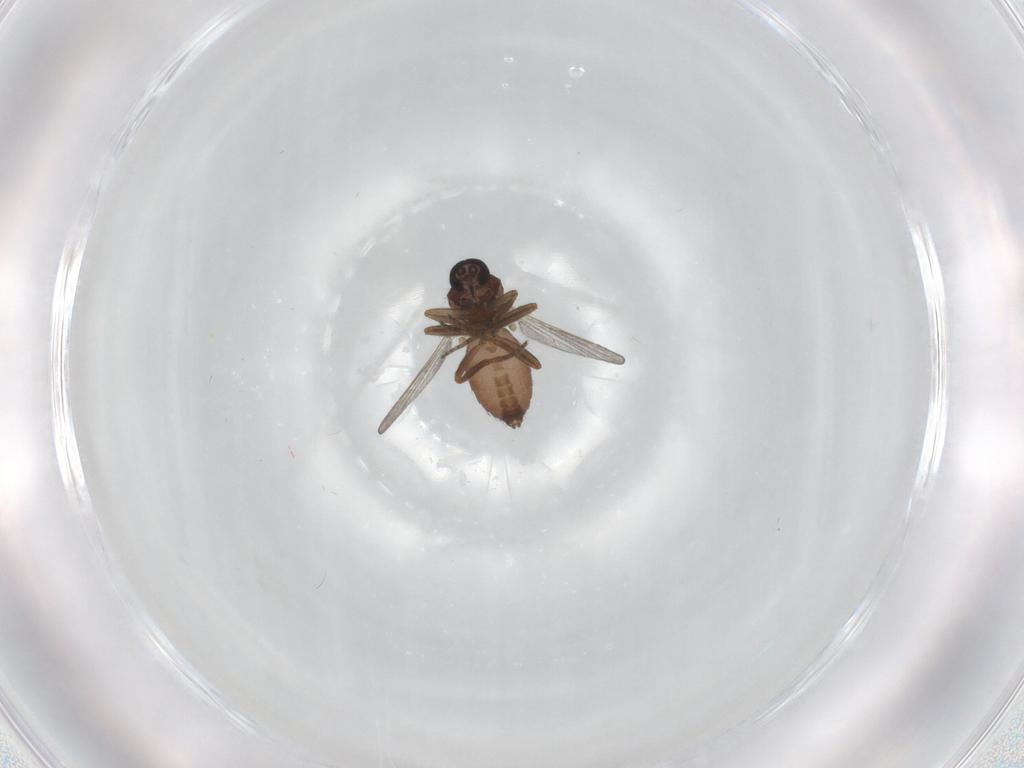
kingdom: Animalia
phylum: Arthropoda
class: Insecta
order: Diptera
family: Ceratopogonidae
